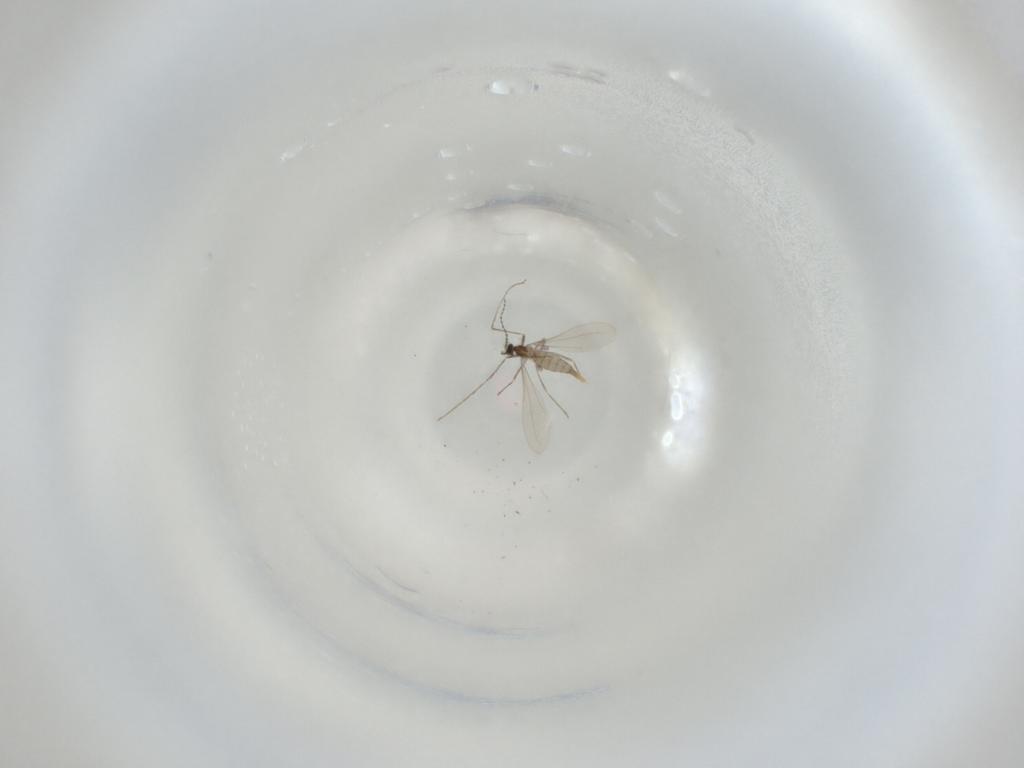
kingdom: Animalia
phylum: Arthropoda
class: Insecta
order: Diptera
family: Cecidomyiidae
